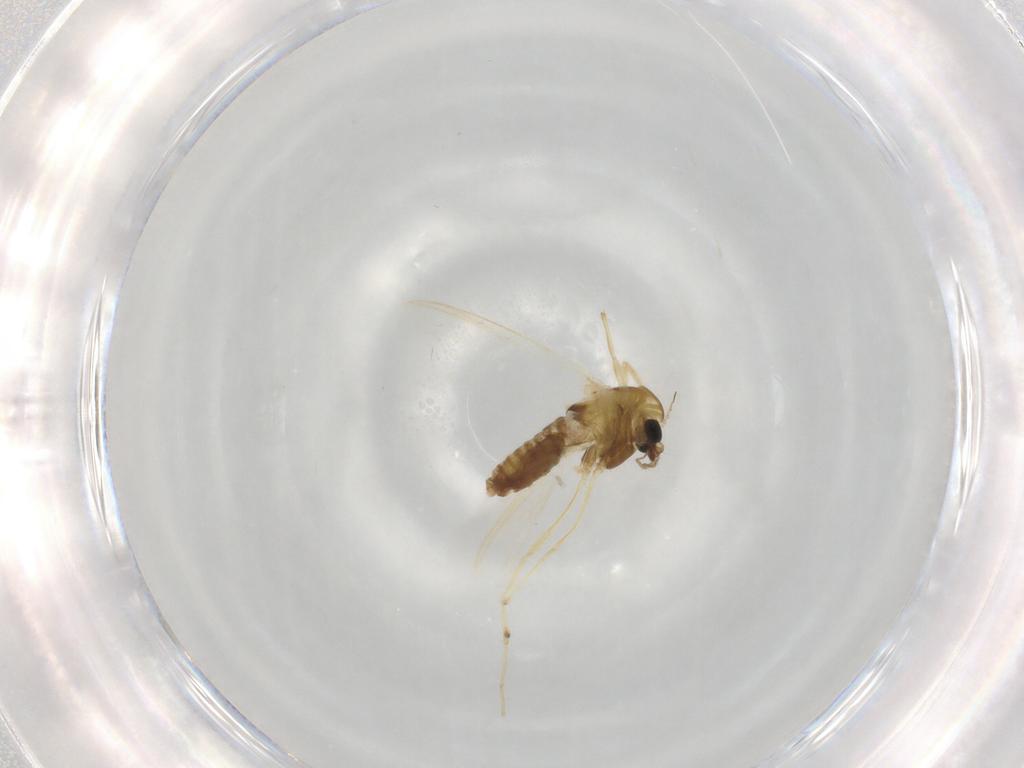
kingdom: Animalia
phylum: Arthropoda
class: Insecta
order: Diptera
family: Chironomidae
